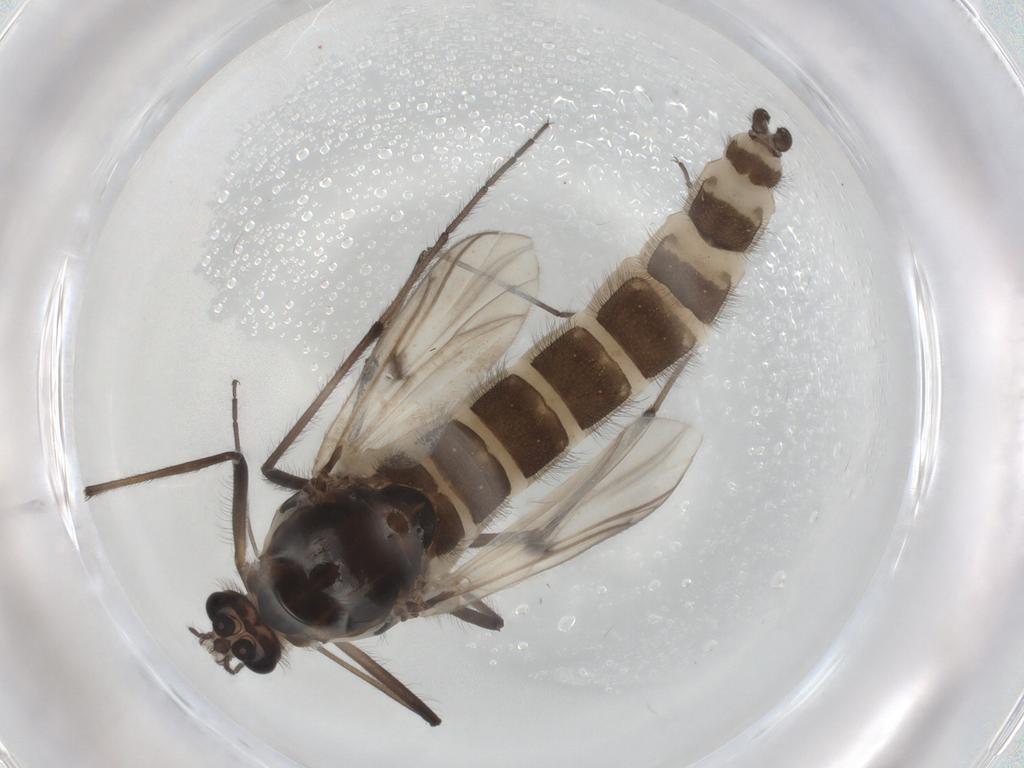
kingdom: Animalia
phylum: Arthropoda
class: Insecta
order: Diptera
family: Chironomidae
